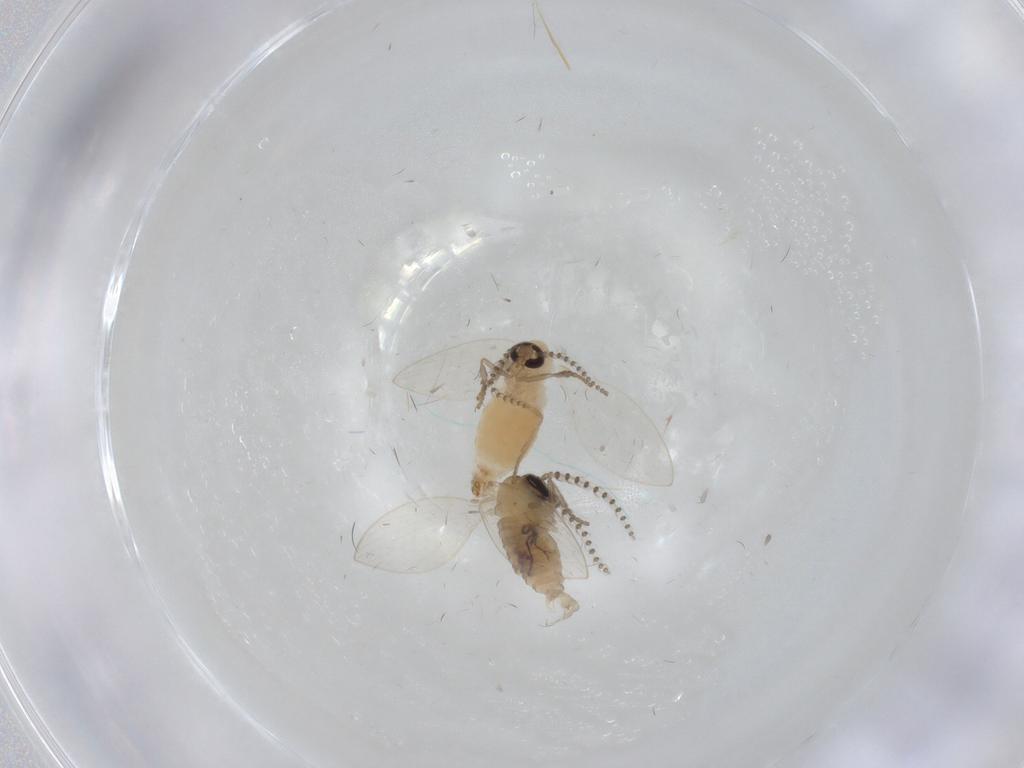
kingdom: Animalia
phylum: Arthropoda
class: Insecta
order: Diptera
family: Psychodidae
